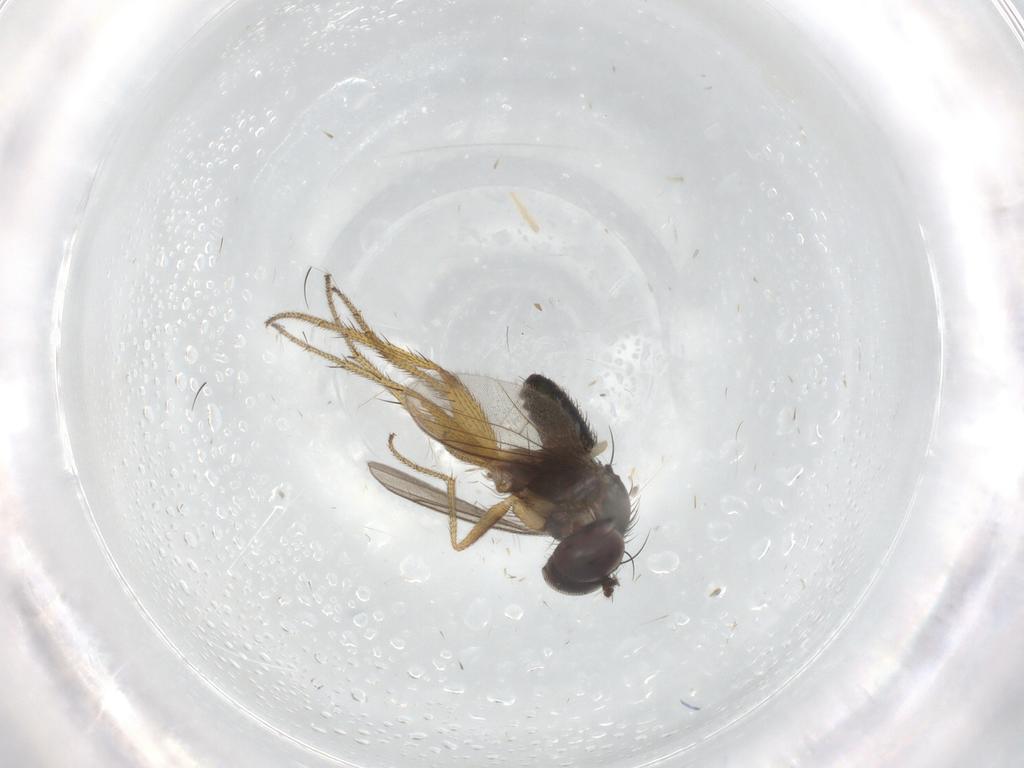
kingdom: Animalia
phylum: Arthropoda
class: Insecta
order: Diptera
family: Dolichopodidae
